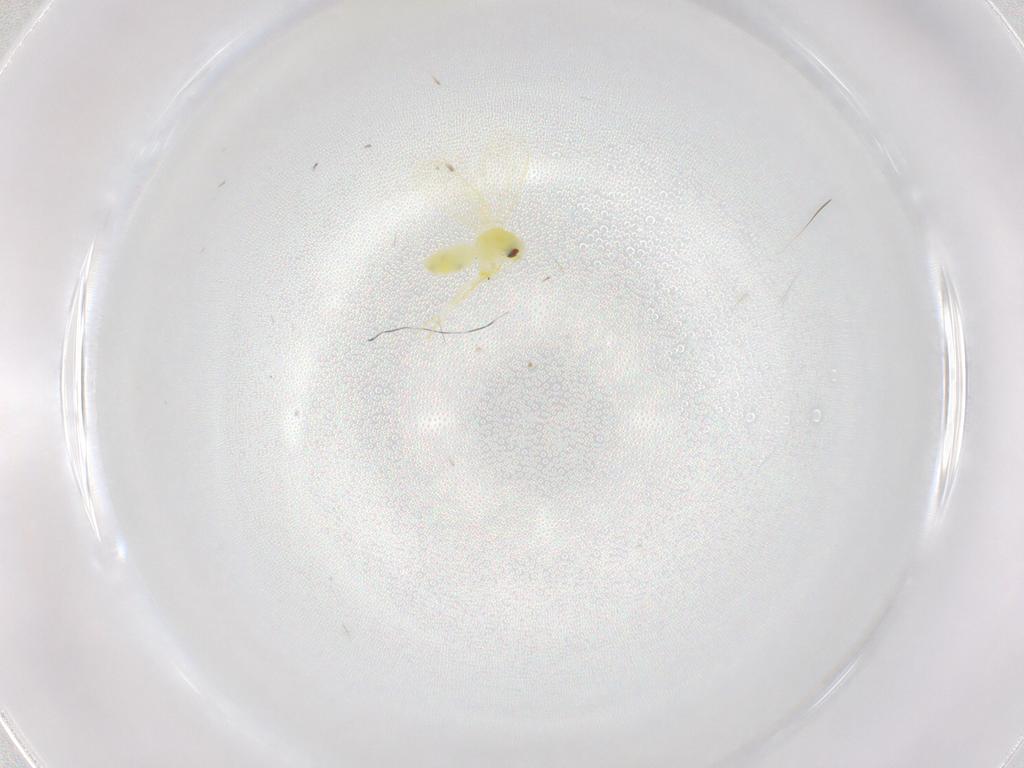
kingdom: Animalia
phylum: Arthropoda
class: Insecta
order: Hemiptera
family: Aleyrodidae
